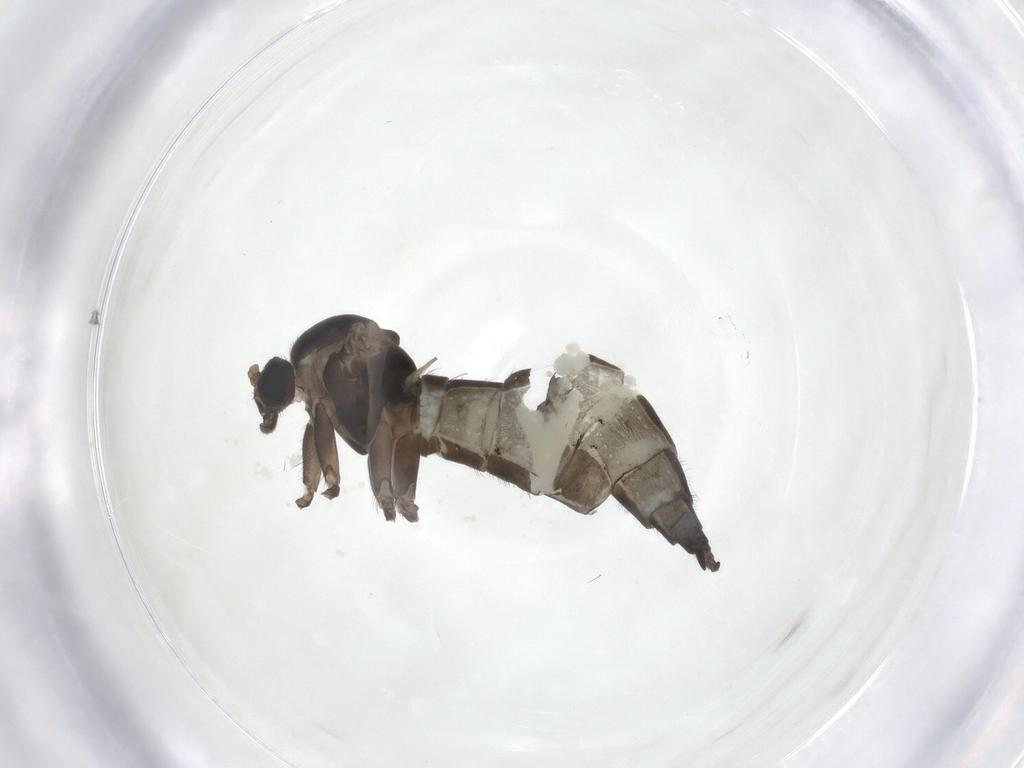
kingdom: Animalia
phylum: Arthropoda
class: Insecta
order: Diptera
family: Sciaridae
